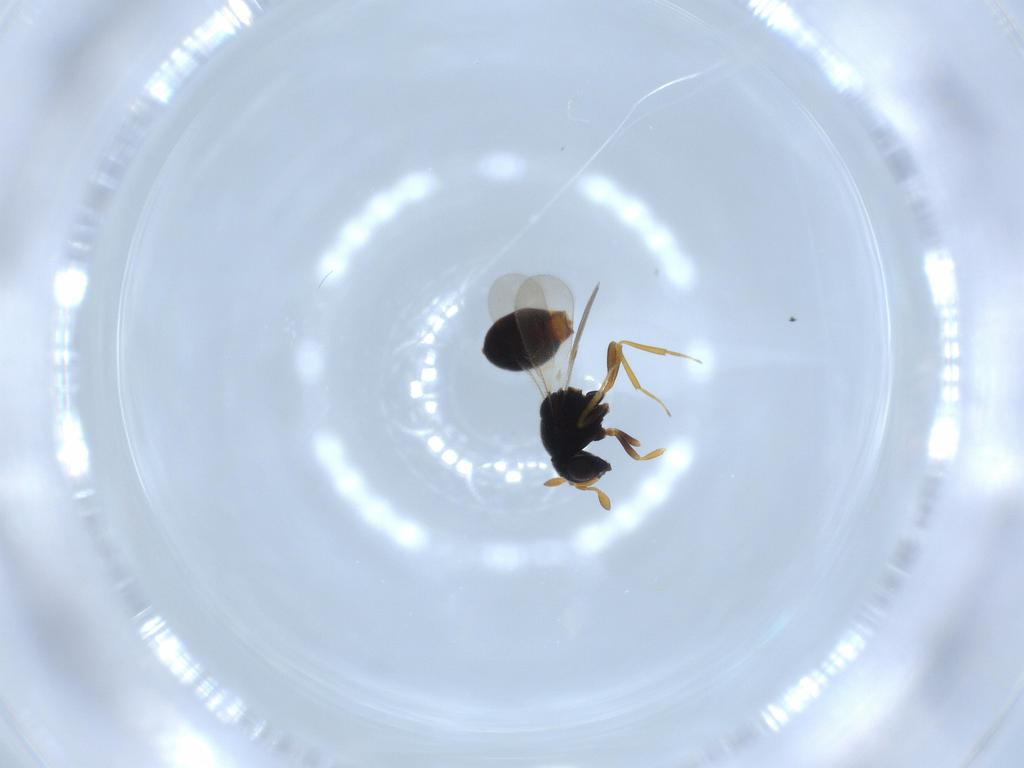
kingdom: Animalia
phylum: Arthropoda
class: Insecta
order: Hymenoptera
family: Scelionidae
